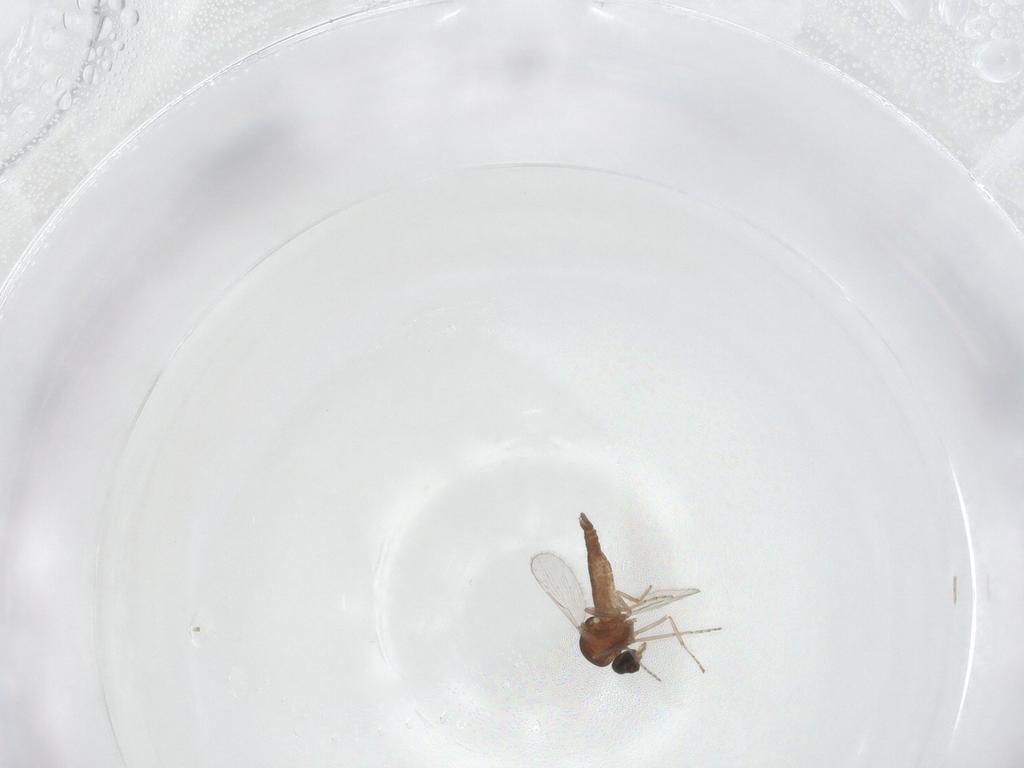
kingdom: Animalia
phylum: Arthropoda
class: Insecta
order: Diptera
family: Ceratopogonidae
